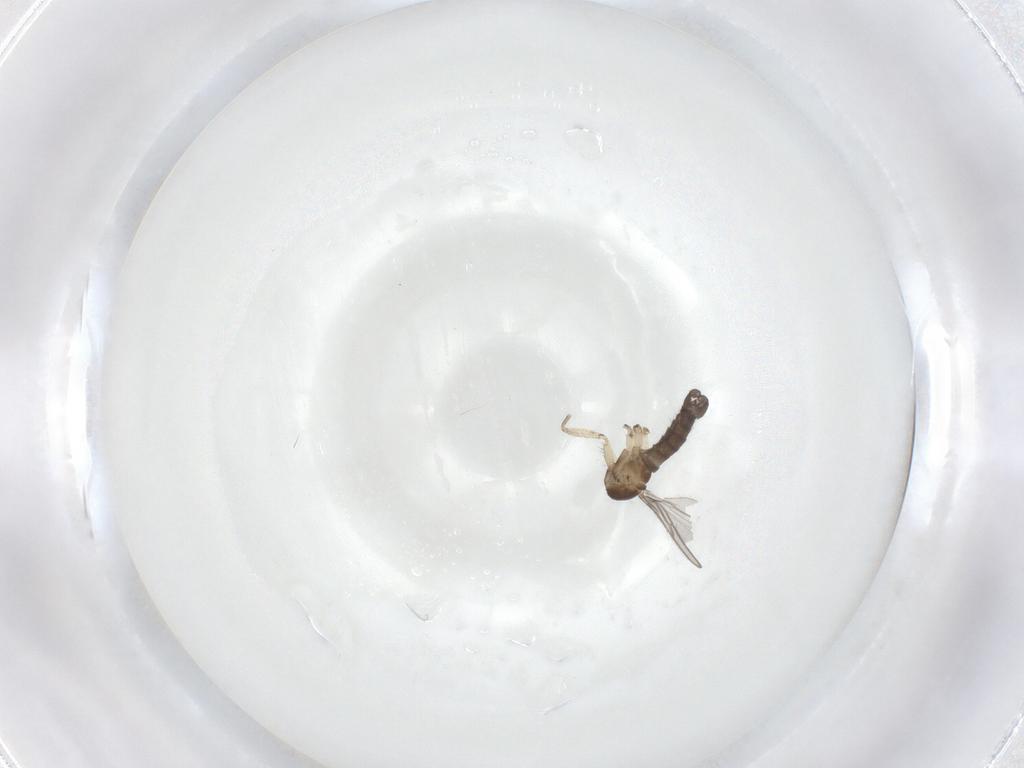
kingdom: Animalia
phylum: Arthropoda
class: Insecta
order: Diptera
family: Sciaridae
